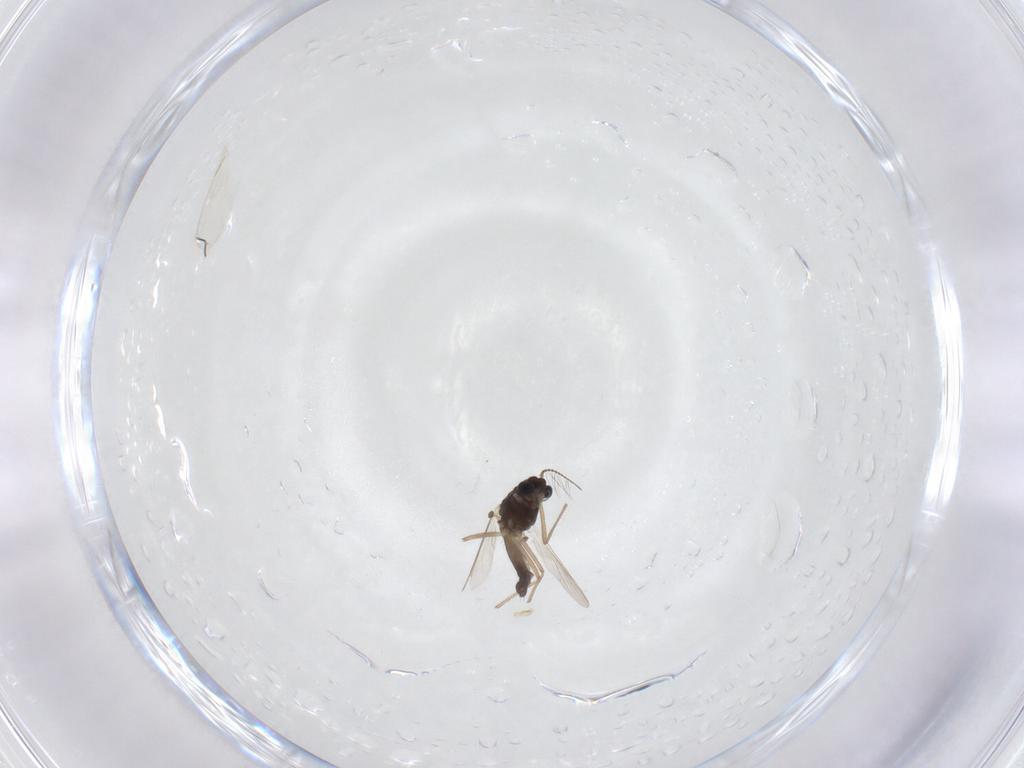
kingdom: Animalia
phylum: Arthropoda
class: Insecta
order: Diptera
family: Chironomidae
